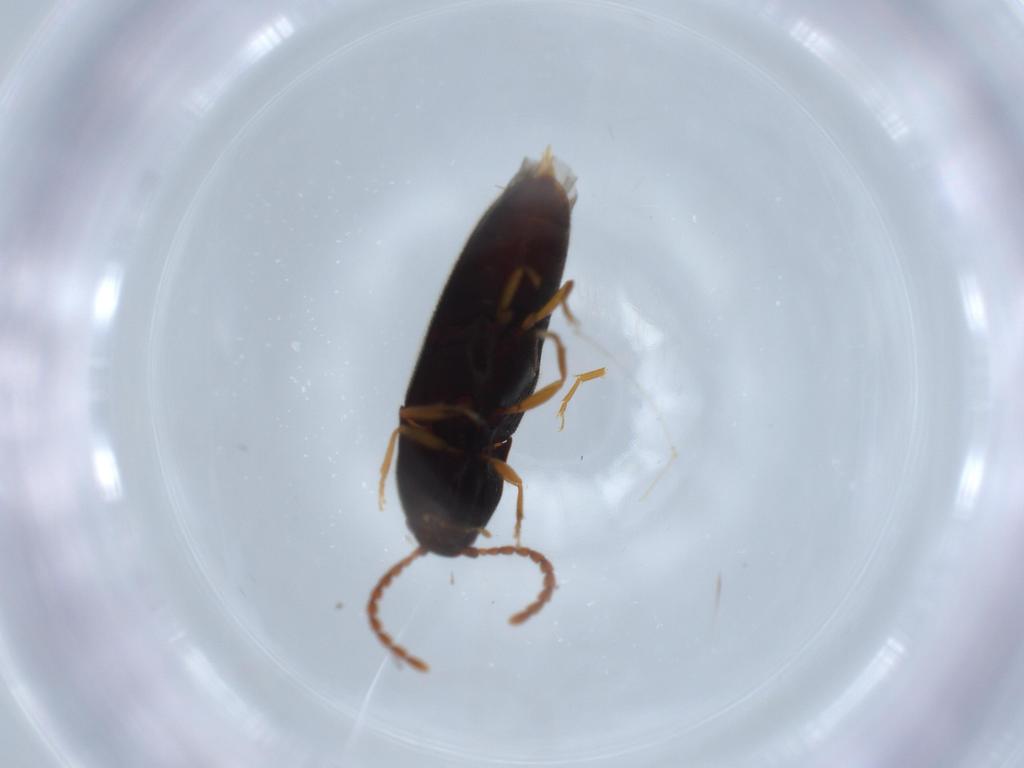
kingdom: Animalia
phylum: Arthropoda
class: Insecta
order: Coleoptera
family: Elateridae
